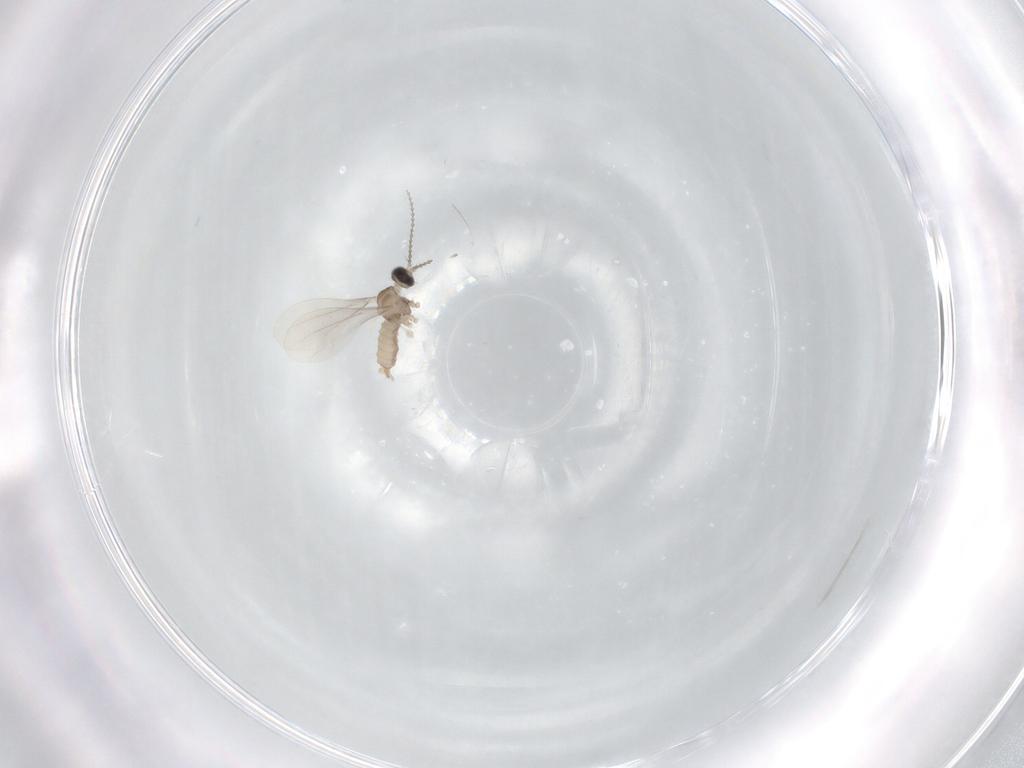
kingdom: Animalia
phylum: Arthropoda
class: Insecta
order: Diptera
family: Cecidomyiidae
